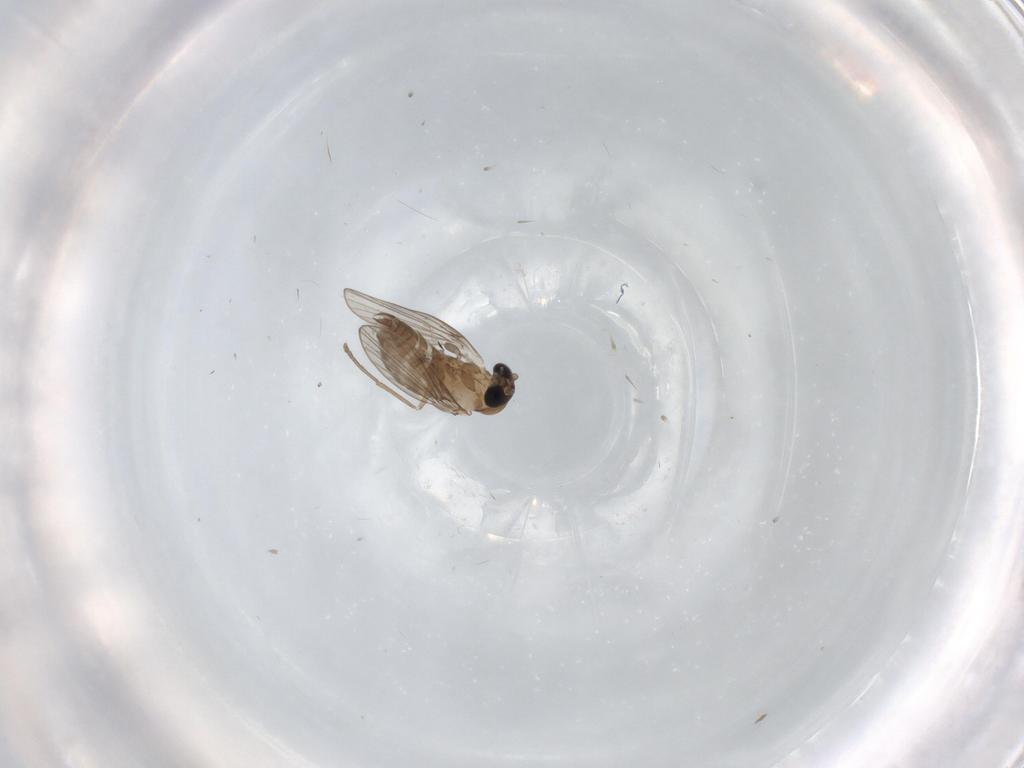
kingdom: Animalia
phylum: Arthropoda
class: Insecta
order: Diptera
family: Psychodidae
